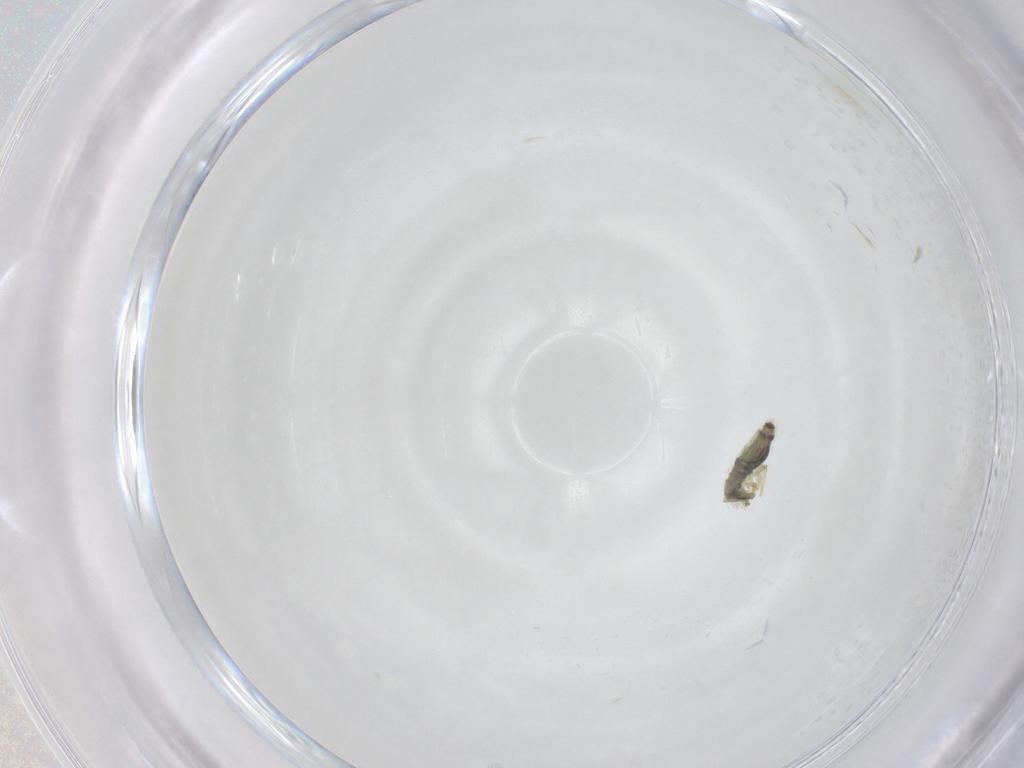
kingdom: Animalia
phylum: Arthropoda
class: Collembola
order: Entomobryomorpha
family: Entomobryidae
